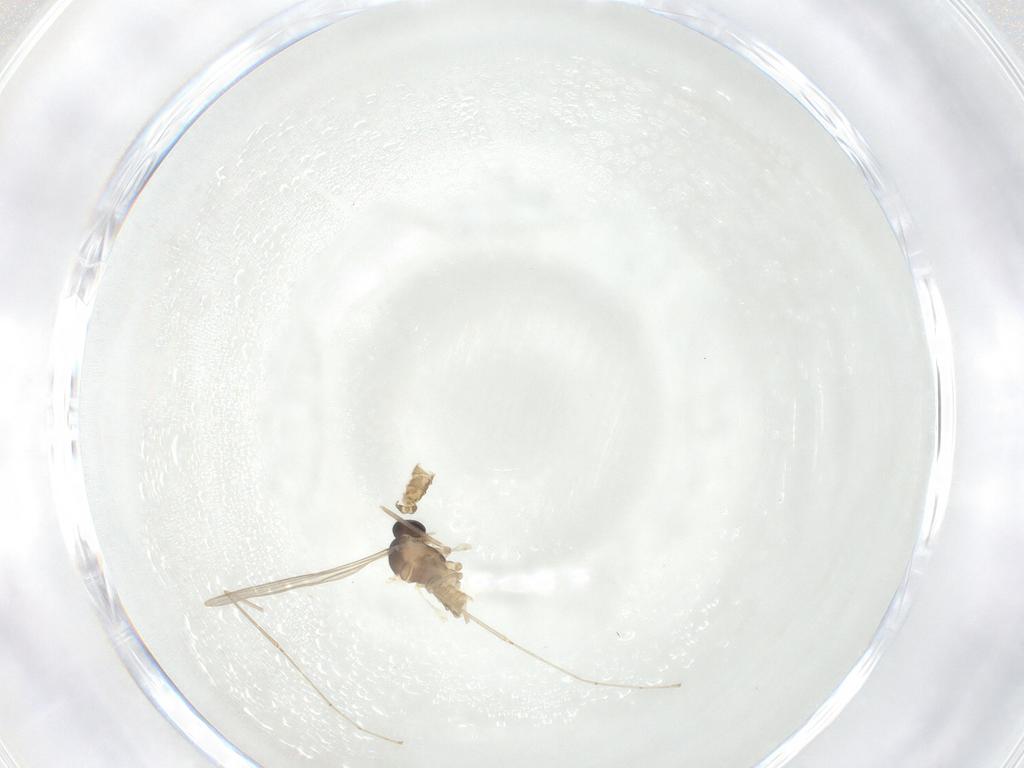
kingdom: Animalia
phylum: Arthropoda
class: Insecta
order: Diptera
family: Cecidomyiidae
